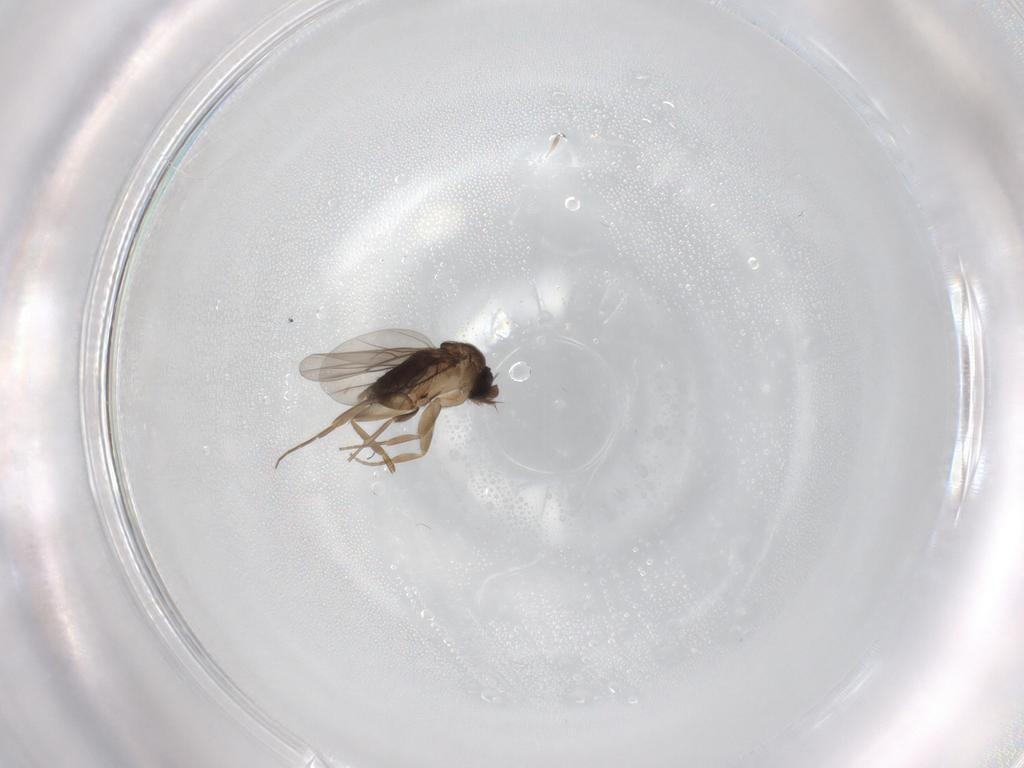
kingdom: Animalia
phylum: Arthropoda
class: Insecta
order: Diptera
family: Phoridae
